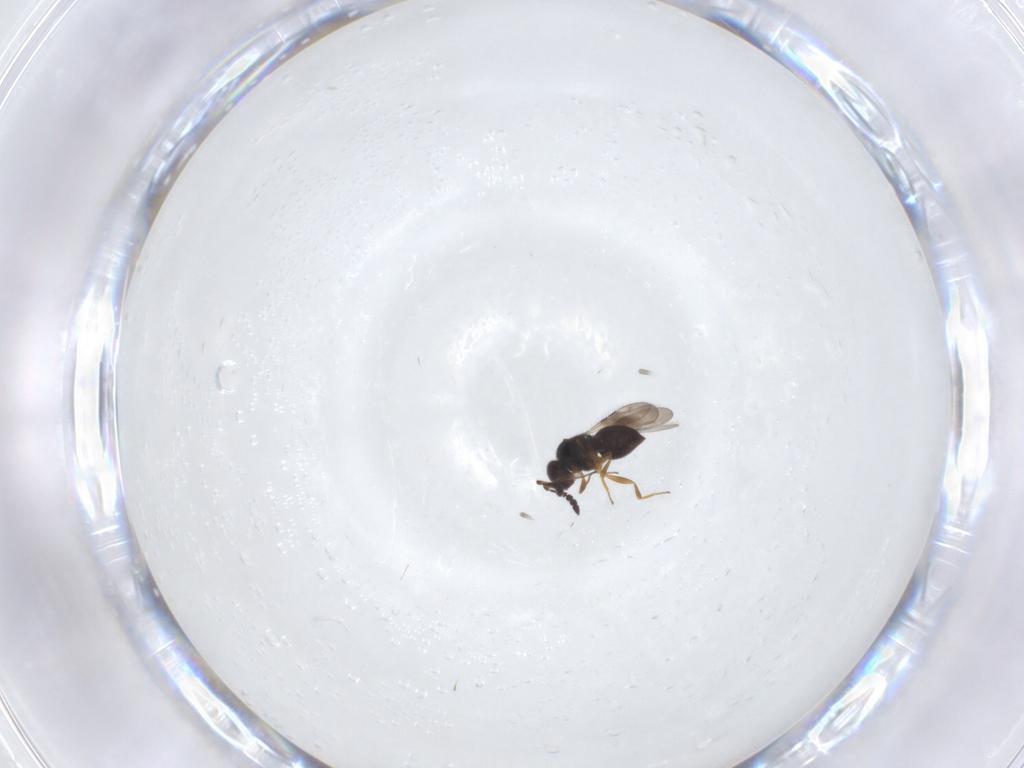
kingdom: Animalia
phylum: Arthropoda
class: Insecta
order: Hymenoptera
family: Ceraphronidae
